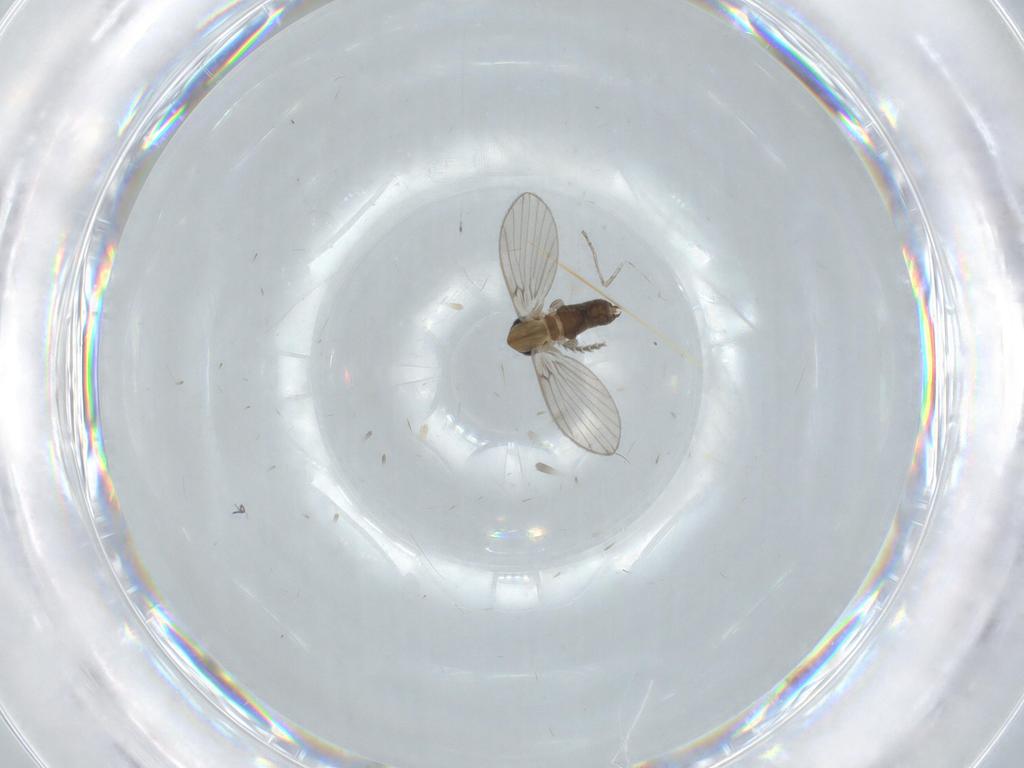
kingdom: Animalia
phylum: Arthropoda
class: Insecta
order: Diptera
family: Psychodidae
